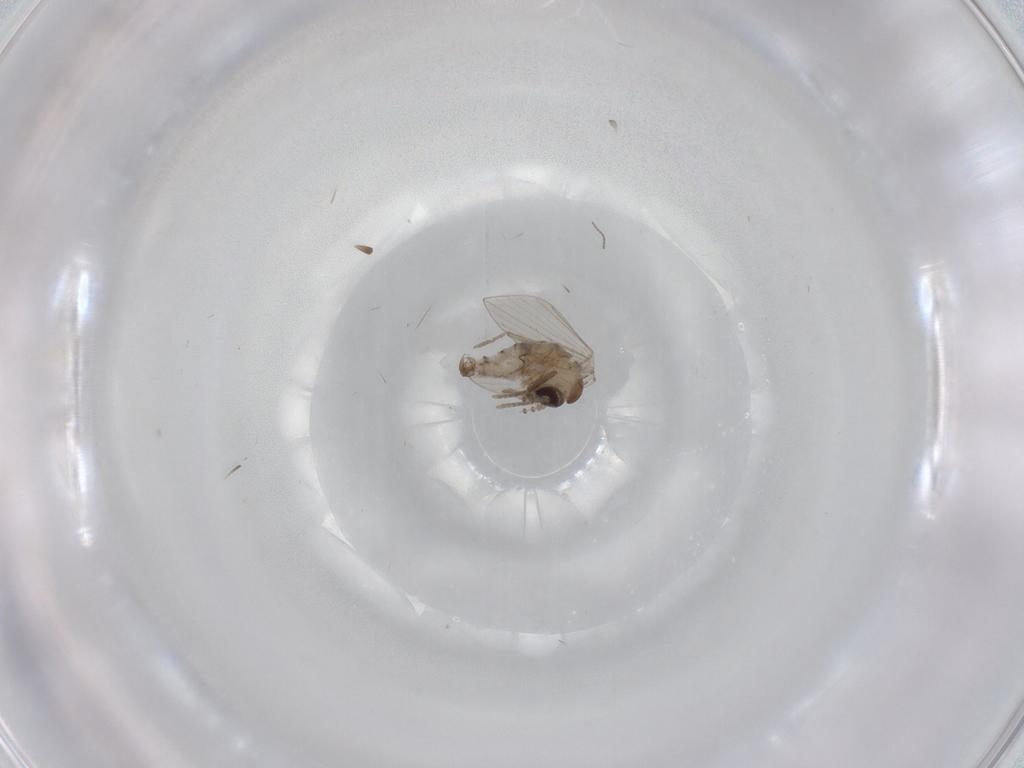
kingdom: Animalia
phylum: Arthropoda
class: Insecta
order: Diptera
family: Psychodidae
